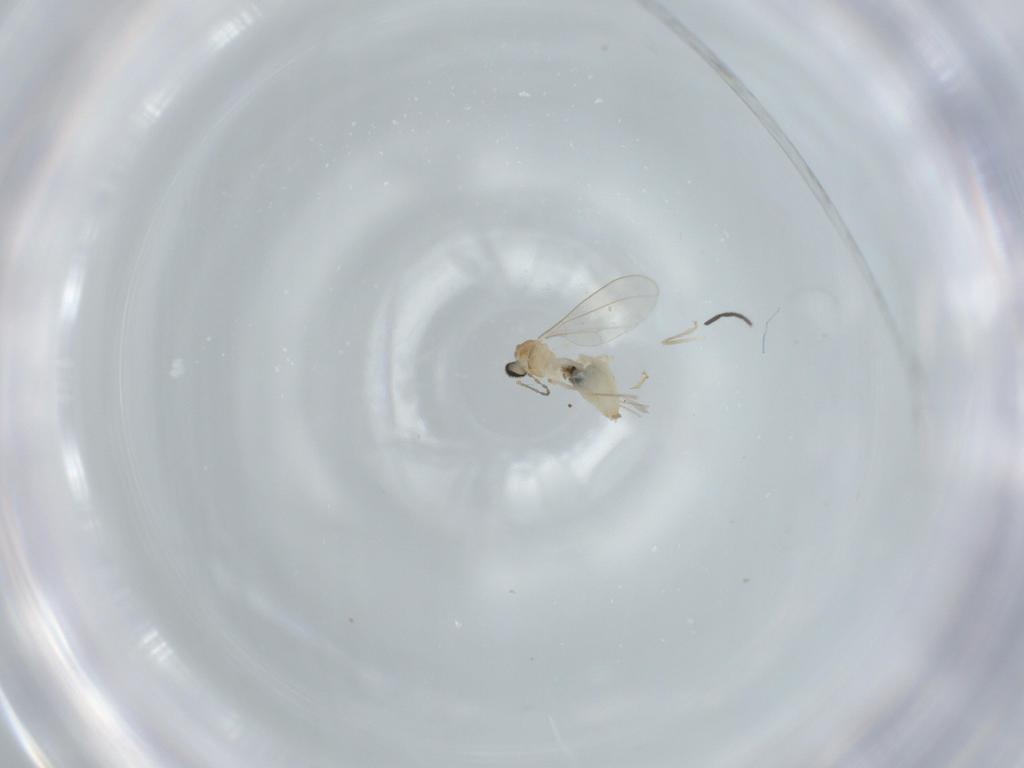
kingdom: Animalia
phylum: Arthropoda
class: Insecta
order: Diptera
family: Cecidomyiidae
